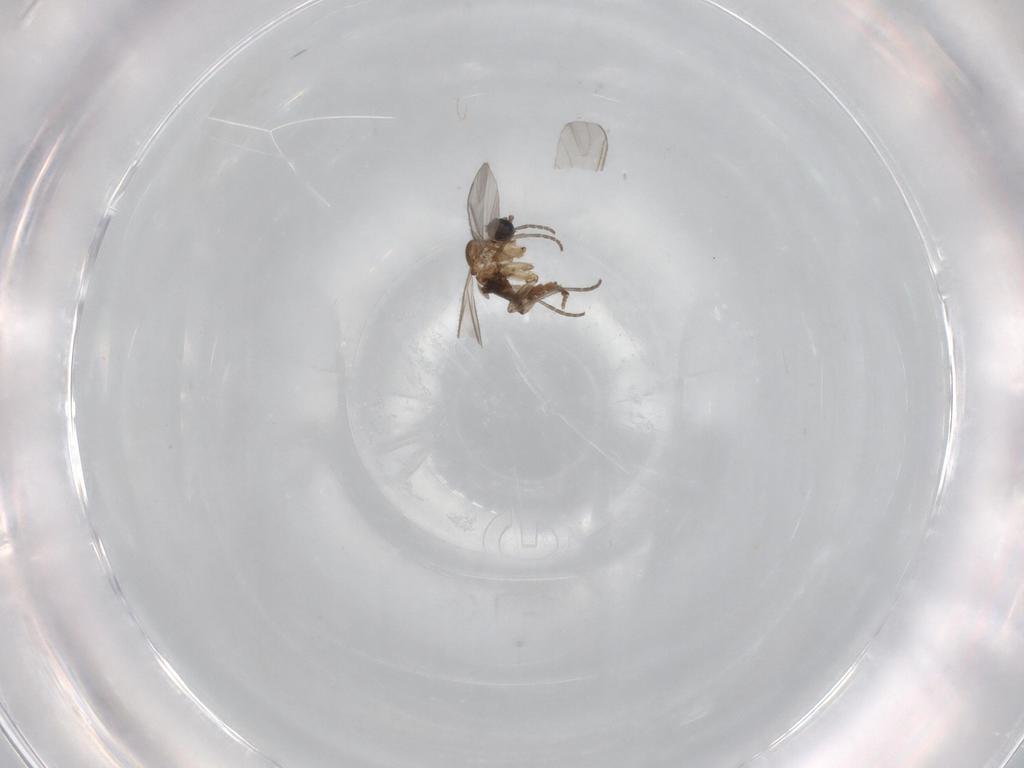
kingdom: Animalia
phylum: Arthropoda
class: Insecta
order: Diptera
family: Sciaridae
